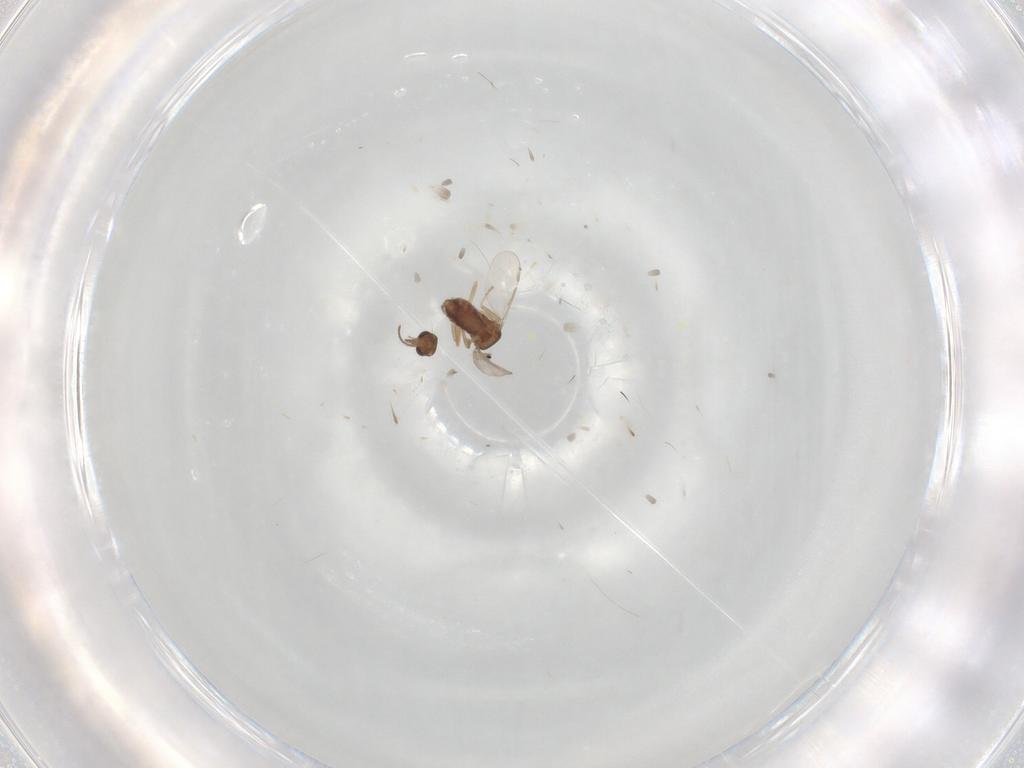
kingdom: Animalia
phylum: Arthropoda
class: Insecta
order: Diptera
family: Ceratopogonidae
